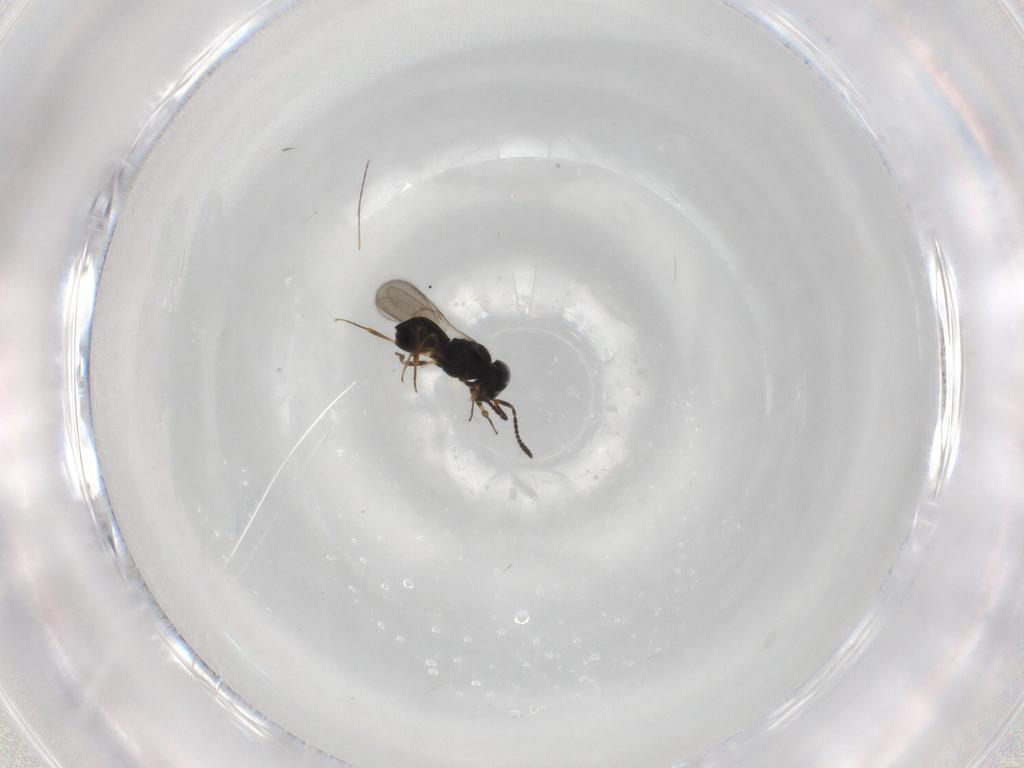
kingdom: Animalia
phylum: Arthropoda
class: Insecta
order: Hymenoptera
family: Scelionidae
